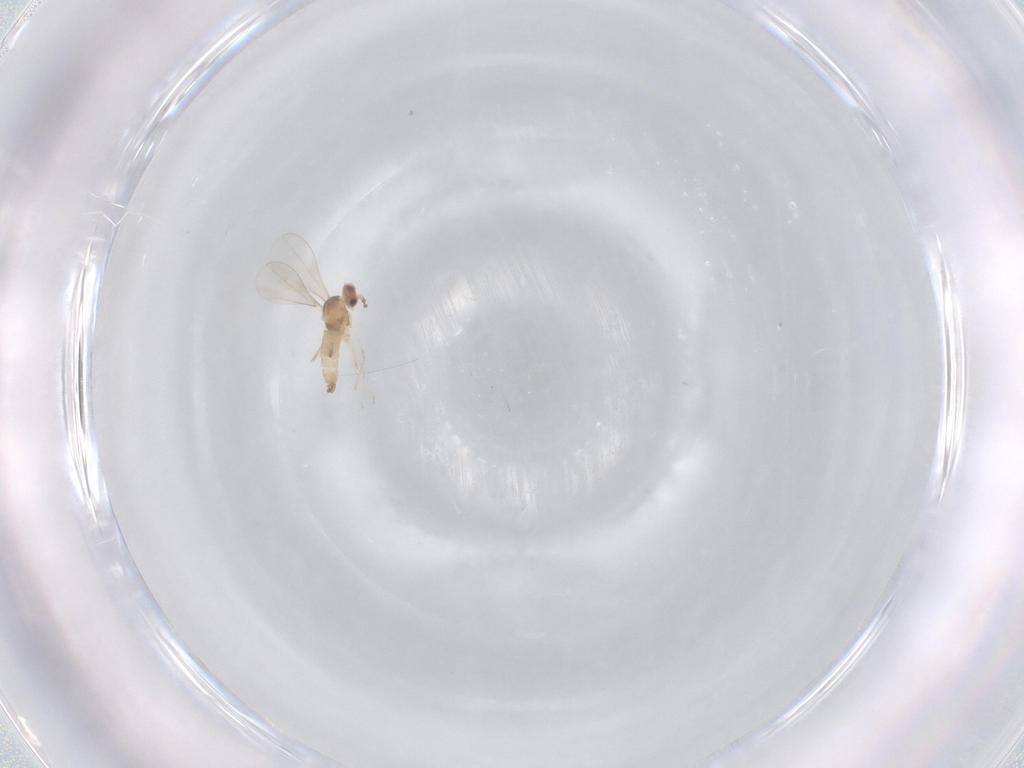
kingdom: Animalia
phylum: Arthropoda
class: Insecta
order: Diptera
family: Cecidomyiidae
